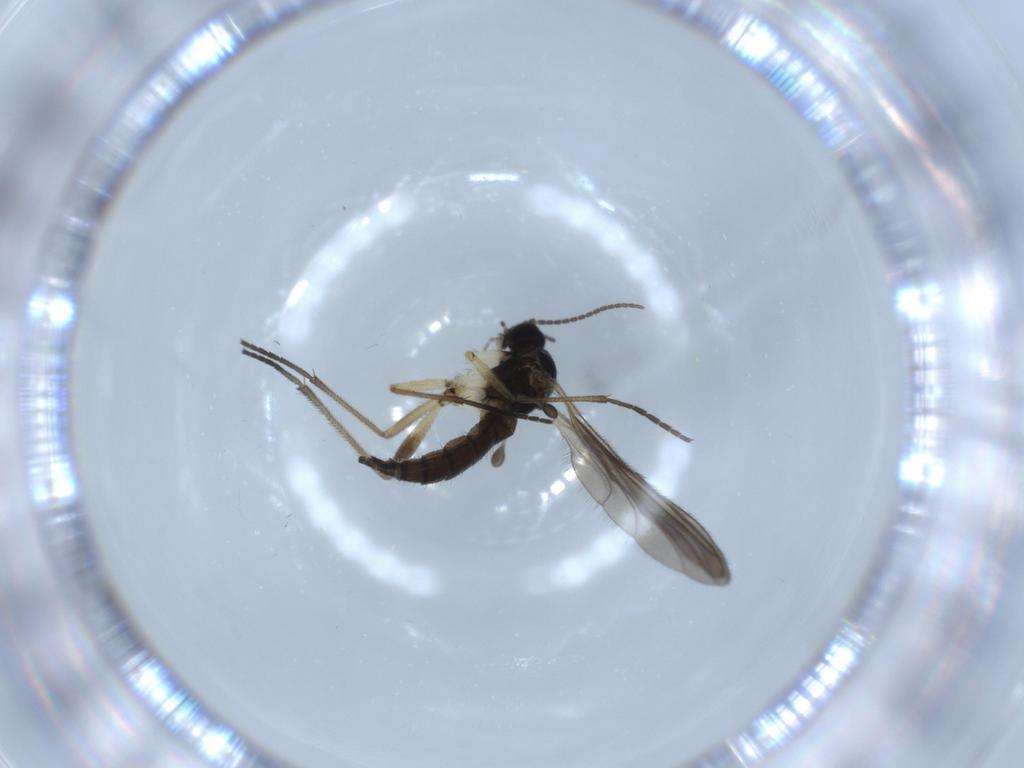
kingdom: Animalia
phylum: Arthropoda
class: Insecta
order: Diptera
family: Sciaridae
